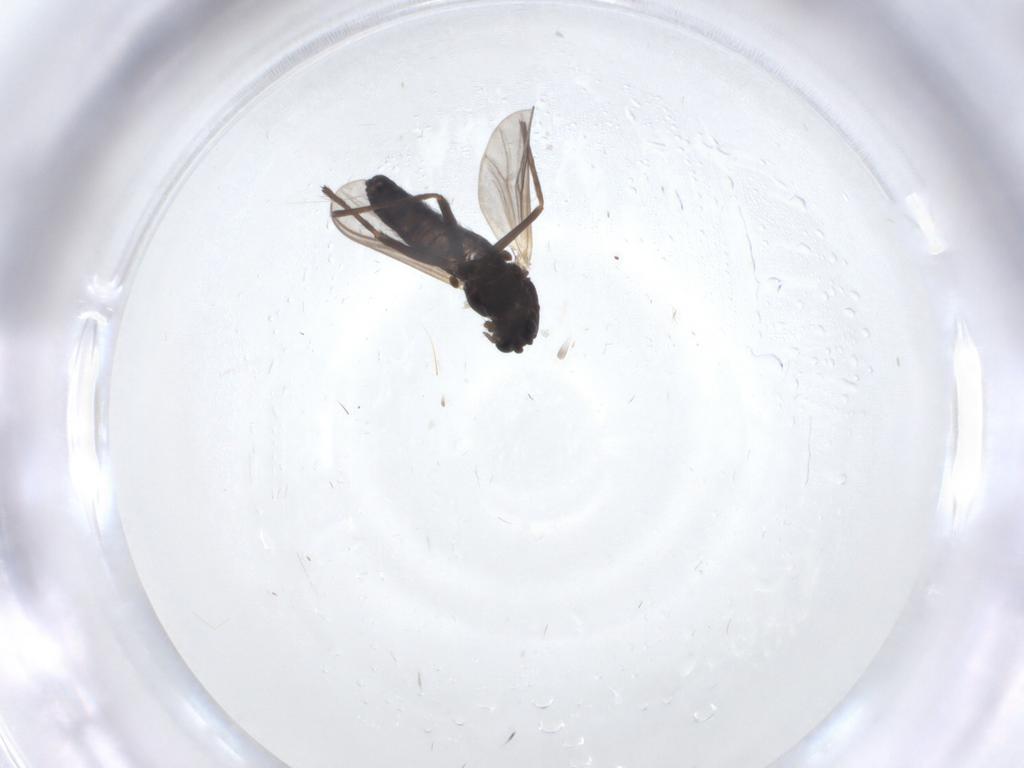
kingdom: Animalia
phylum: Arthropoda
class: Insecta
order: Diptera
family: Chironomidae
